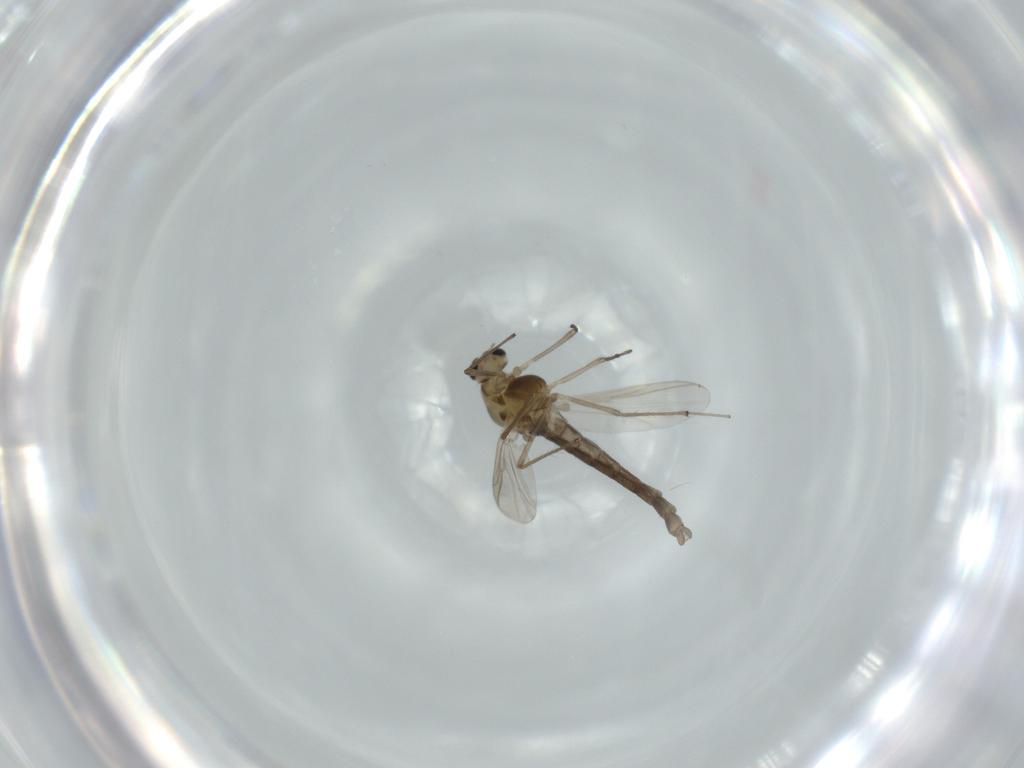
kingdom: Animalia
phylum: Arthropoda
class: Insecta
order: Diptera
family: Chironomidae
